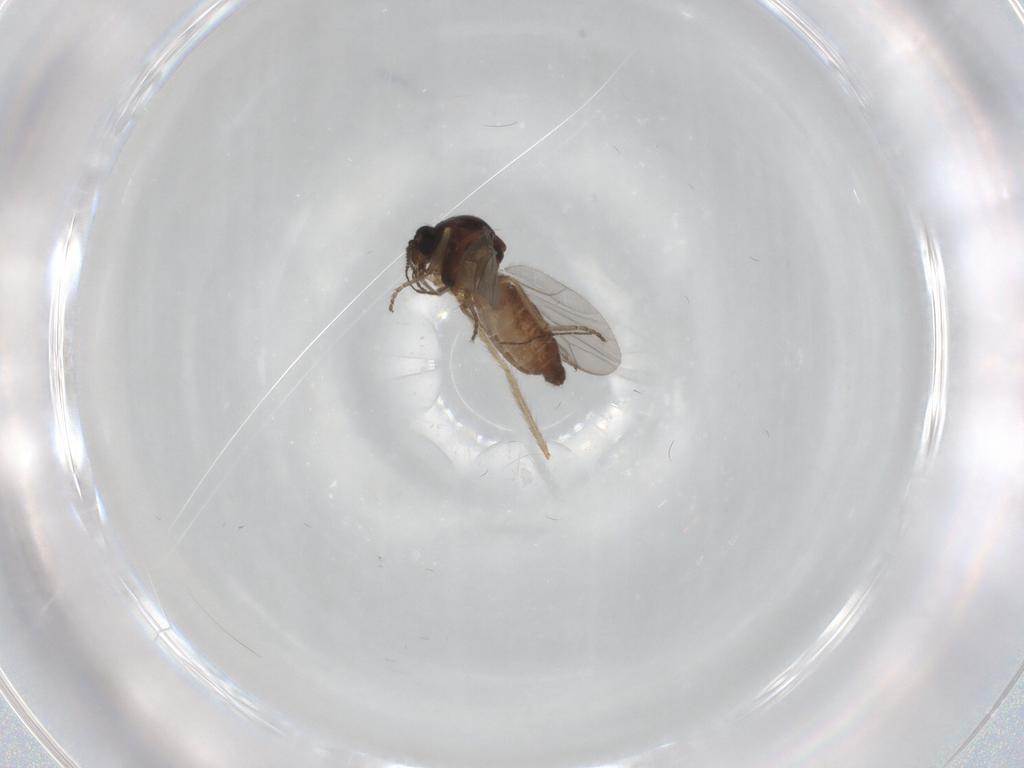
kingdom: Animalia
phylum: Arthropoda
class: Insecta
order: Diptera
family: Ceratopogonidae
